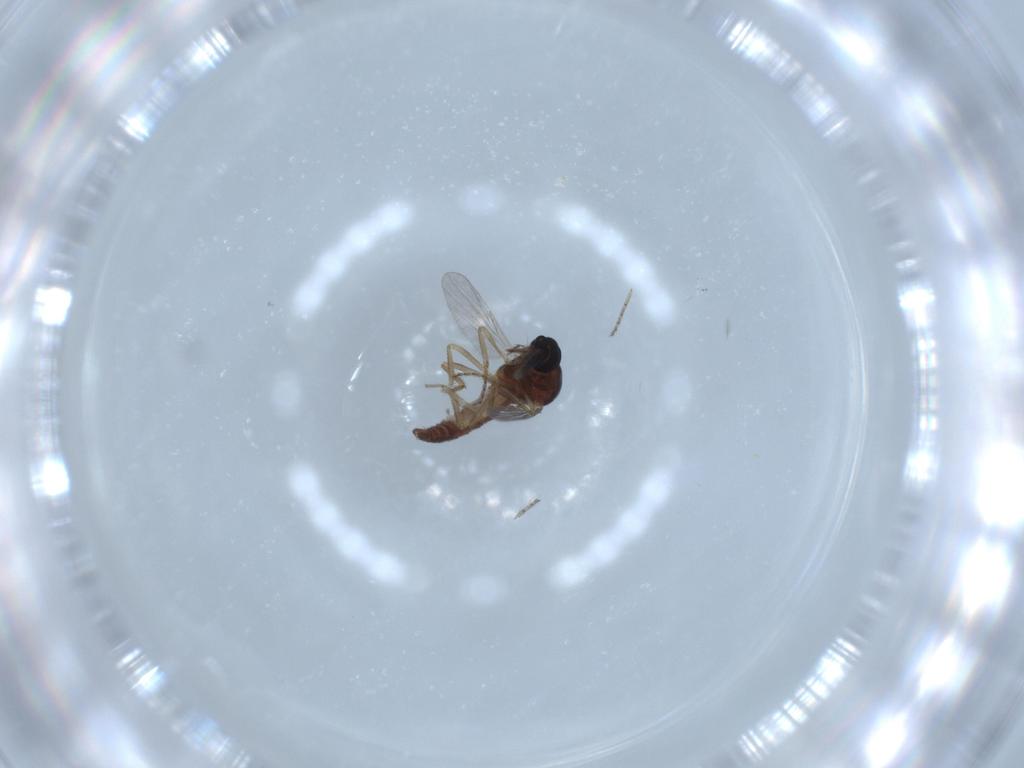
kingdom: Animalia
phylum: Arthropoda
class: Insecta
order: Diptera
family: Ceratopogonidae
